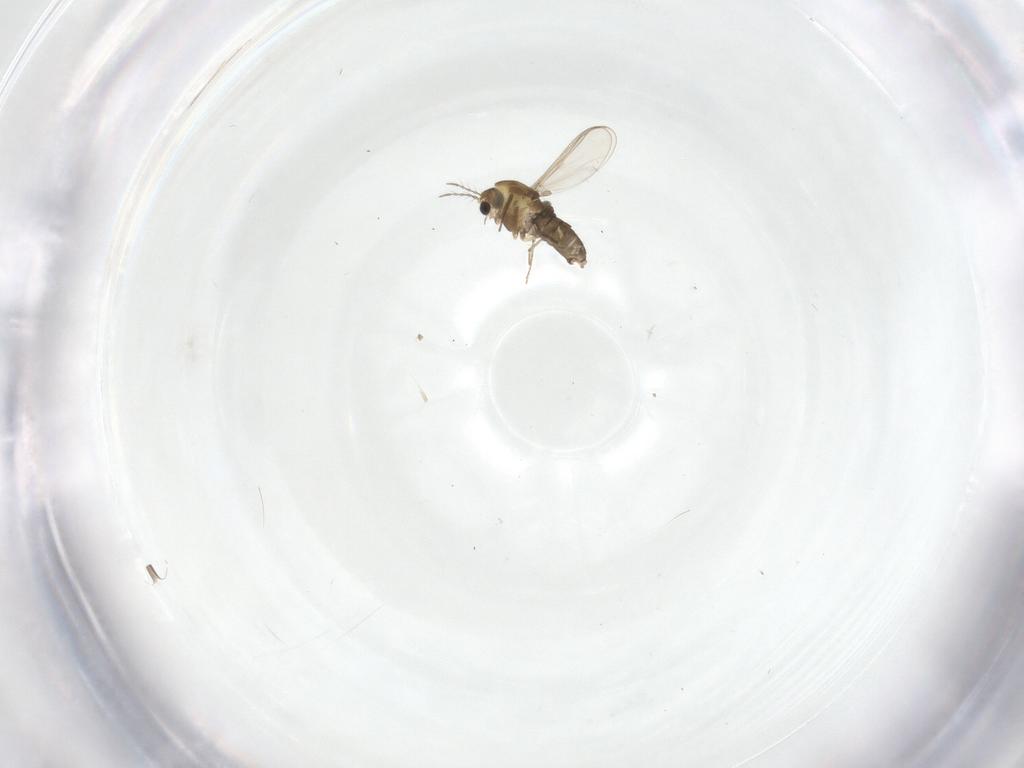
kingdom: Animalia
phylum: Arthropoda
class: Insecta
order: Diptera
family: Chironomidae
